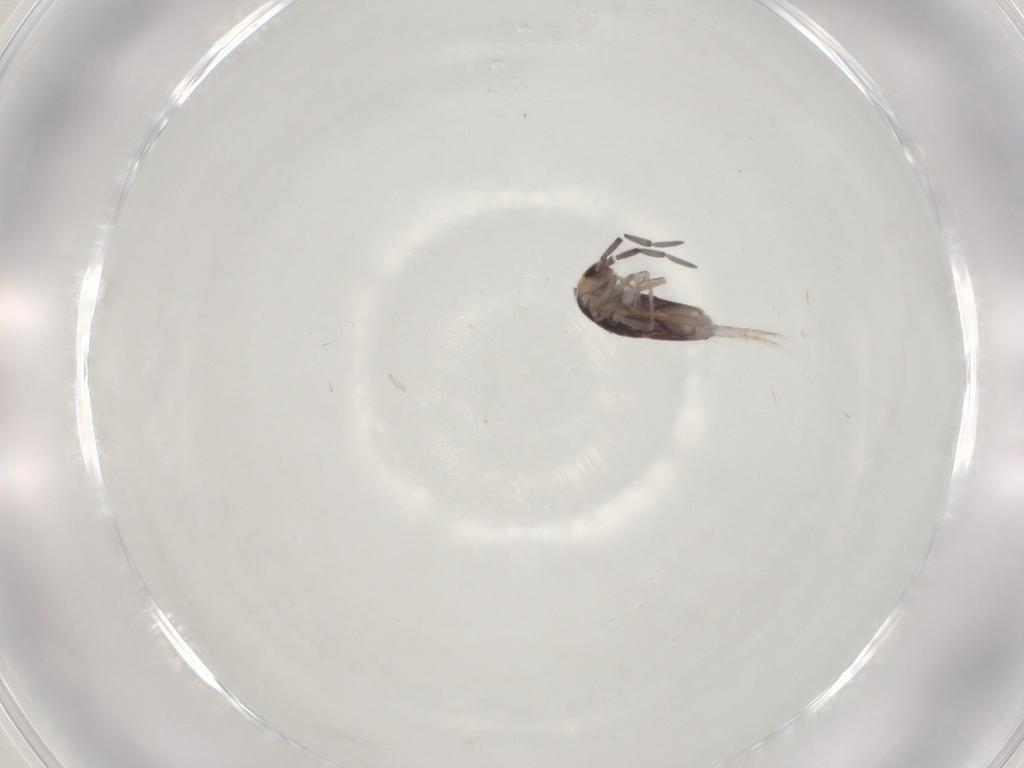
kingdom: Animalia
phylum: Arthropoda
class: Collembola
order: Entomobryomorpha
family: Entomobryidae
